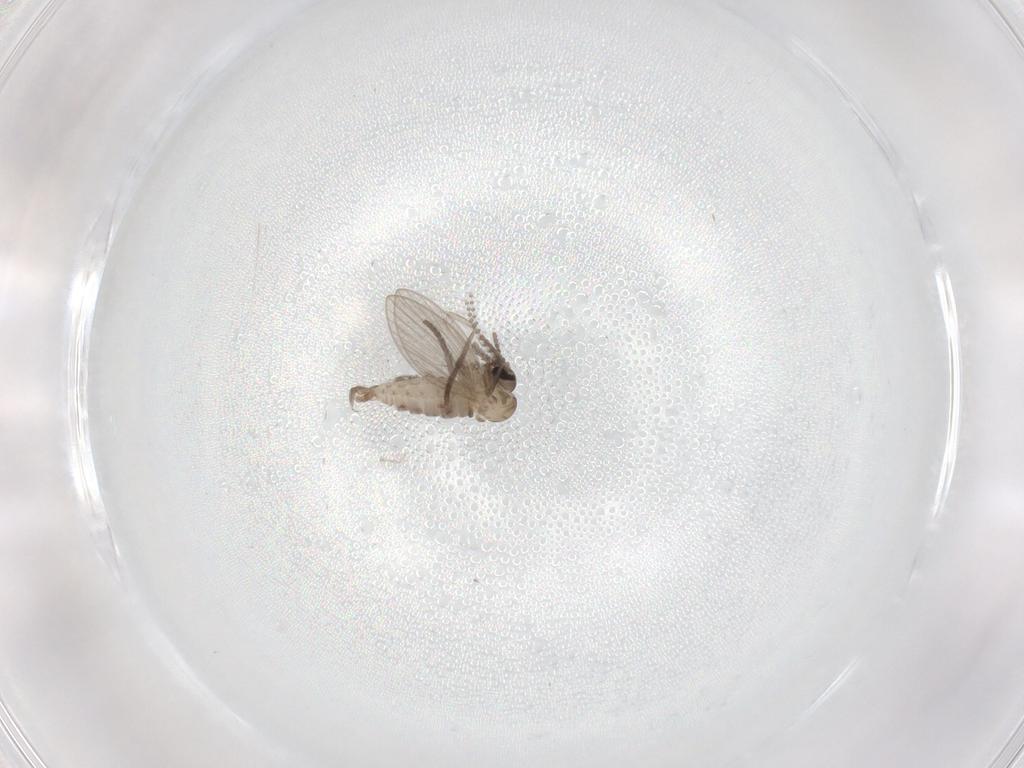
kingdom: Animalia
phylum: Arthropoda
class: Insecta
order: Diptera
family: Psychodidae
